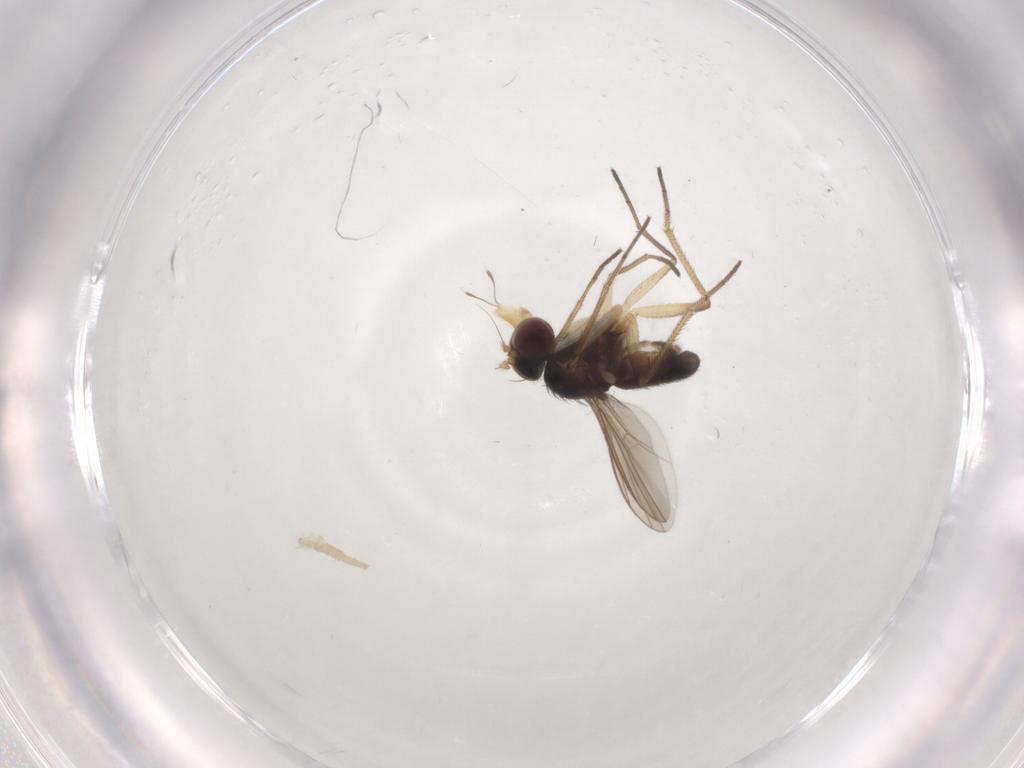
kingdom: Animalia
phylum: Arthropoda
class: Insecta
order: Diptera
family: Dolichopodidae
